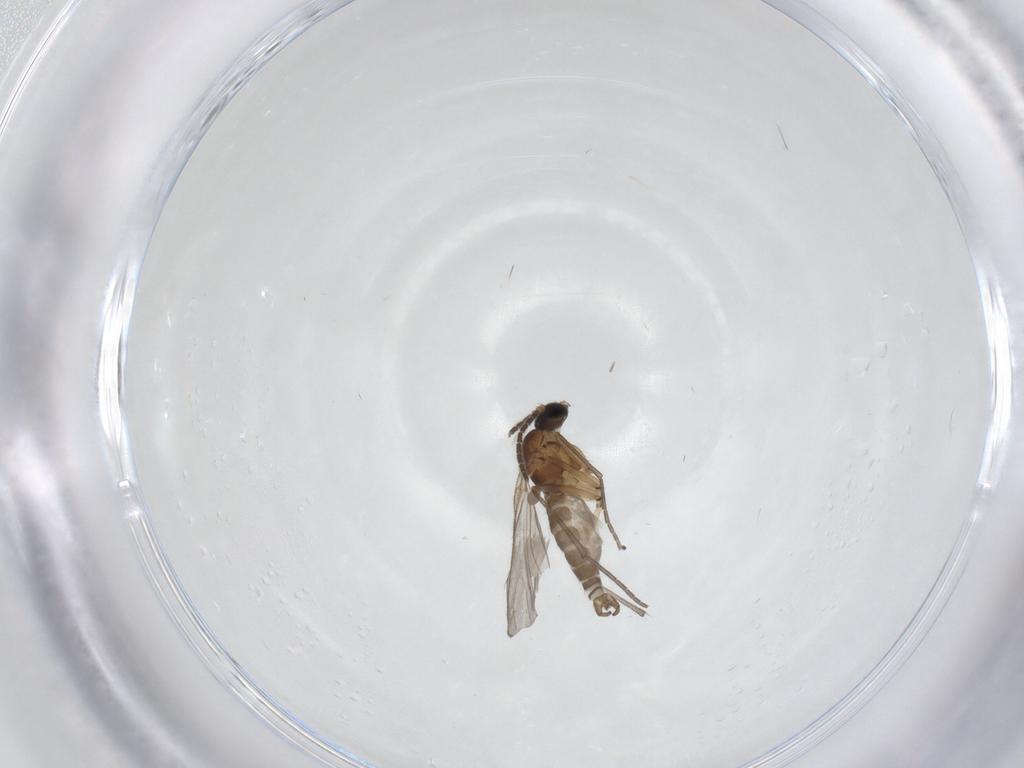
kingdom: Animalia
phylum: Arthropoda
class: Insecta
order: Diptera
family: Sciaridae
